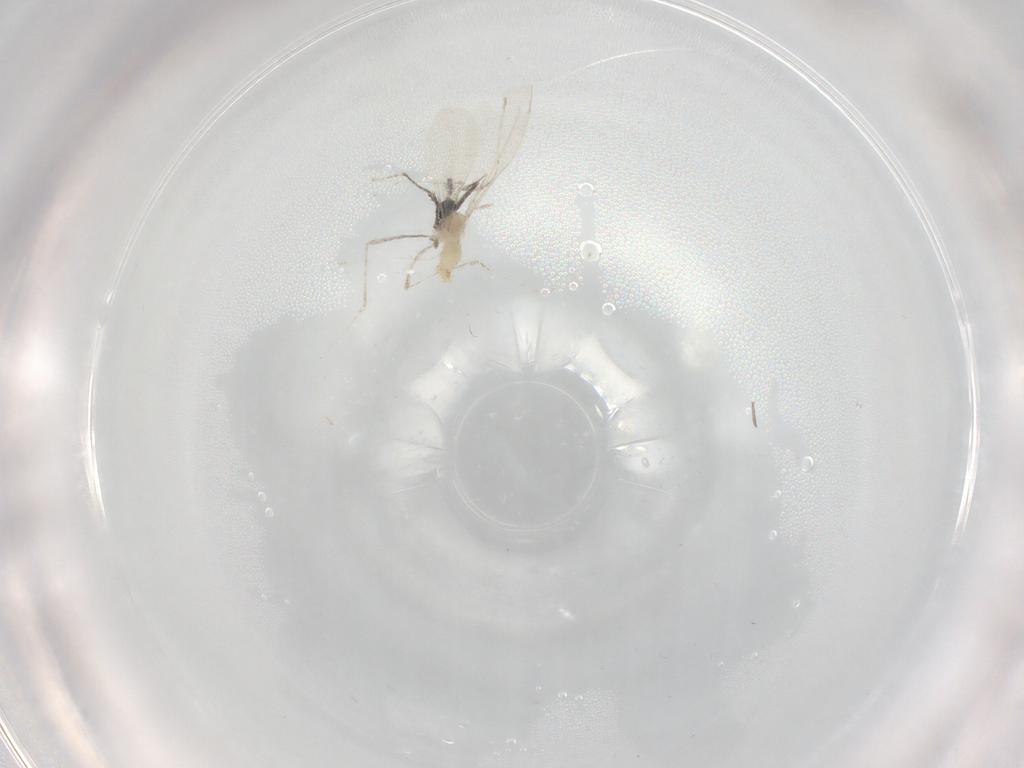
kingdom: Animalia
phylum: Arthropoda
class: Insecta
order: Diptera
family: Cecidomyiidae
